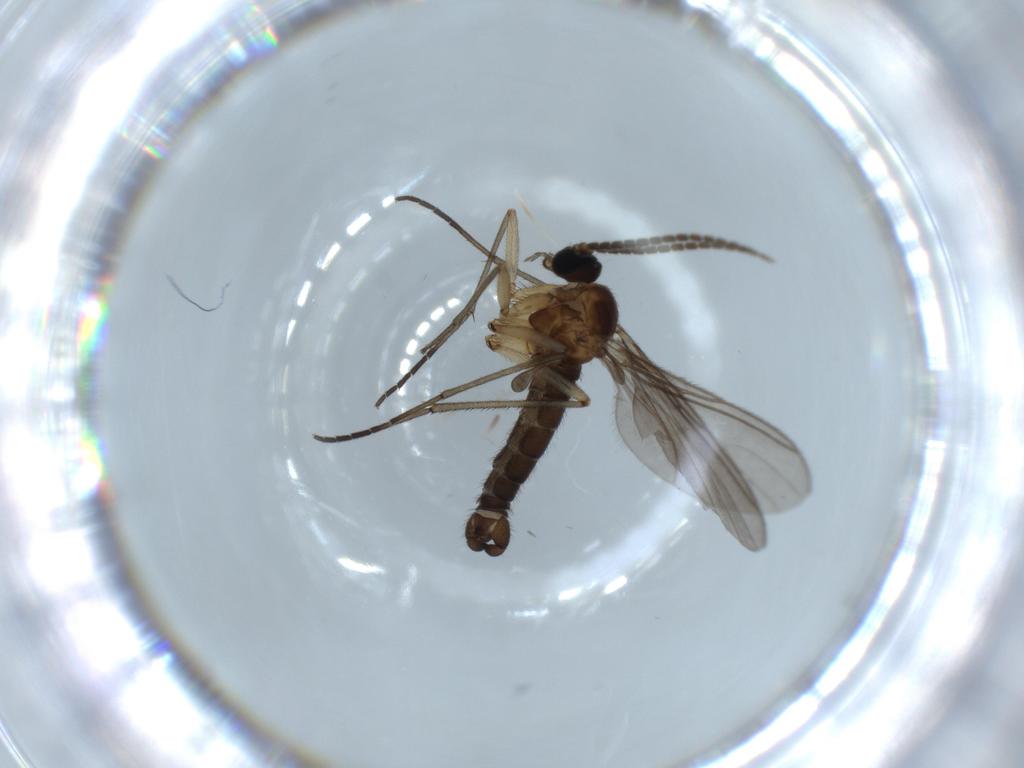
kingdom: Animalia
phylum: Arthropoda
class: Insecta
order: Diptera
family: Sciaridae
